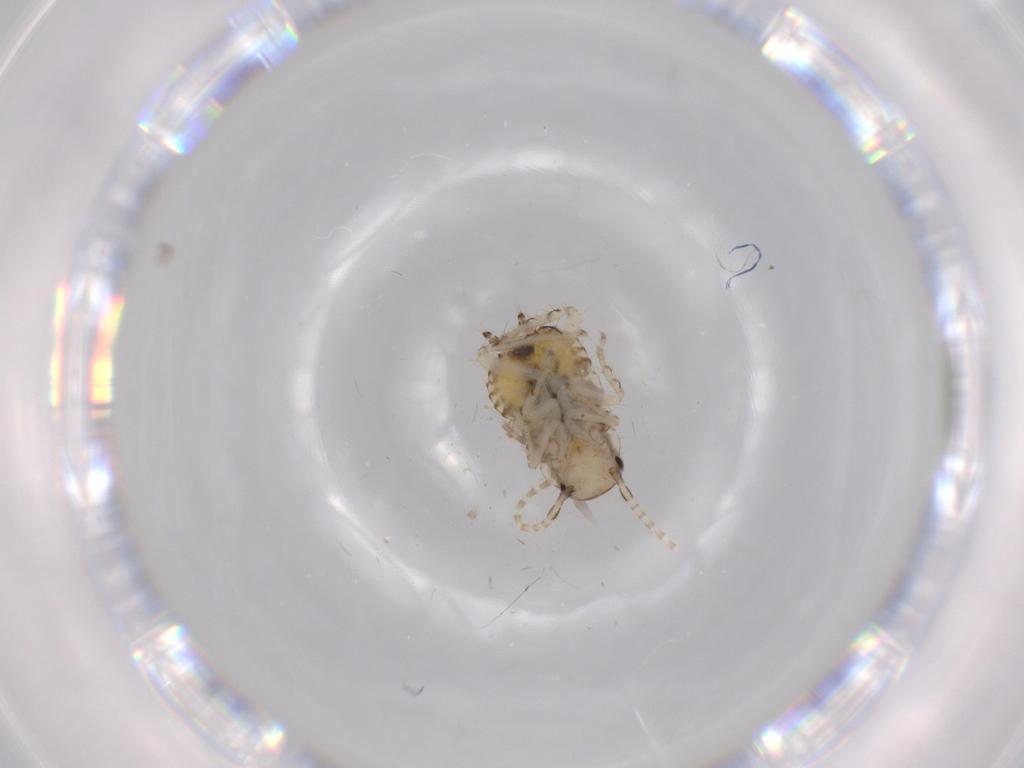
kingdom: Animalia
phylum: Arthropoda
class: Insecta
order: Blattodea
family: Ectobiidae
